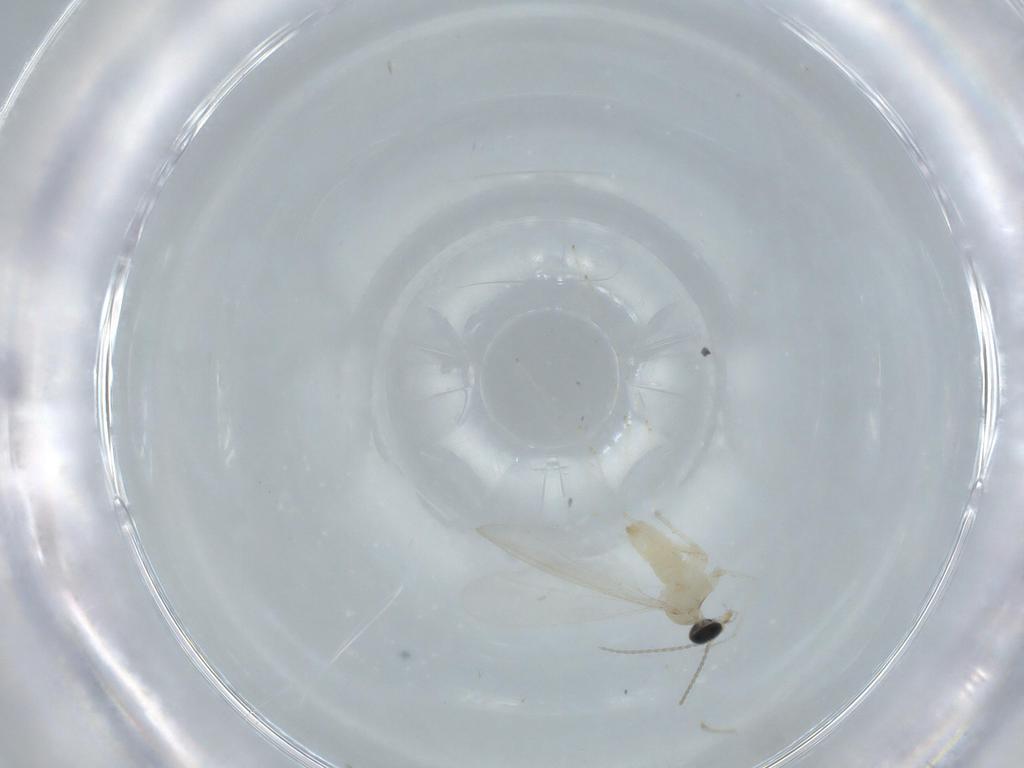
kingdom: Animalia
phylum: Arthropoda
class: Insecta
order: Diptera
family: Cecidomyiidae
